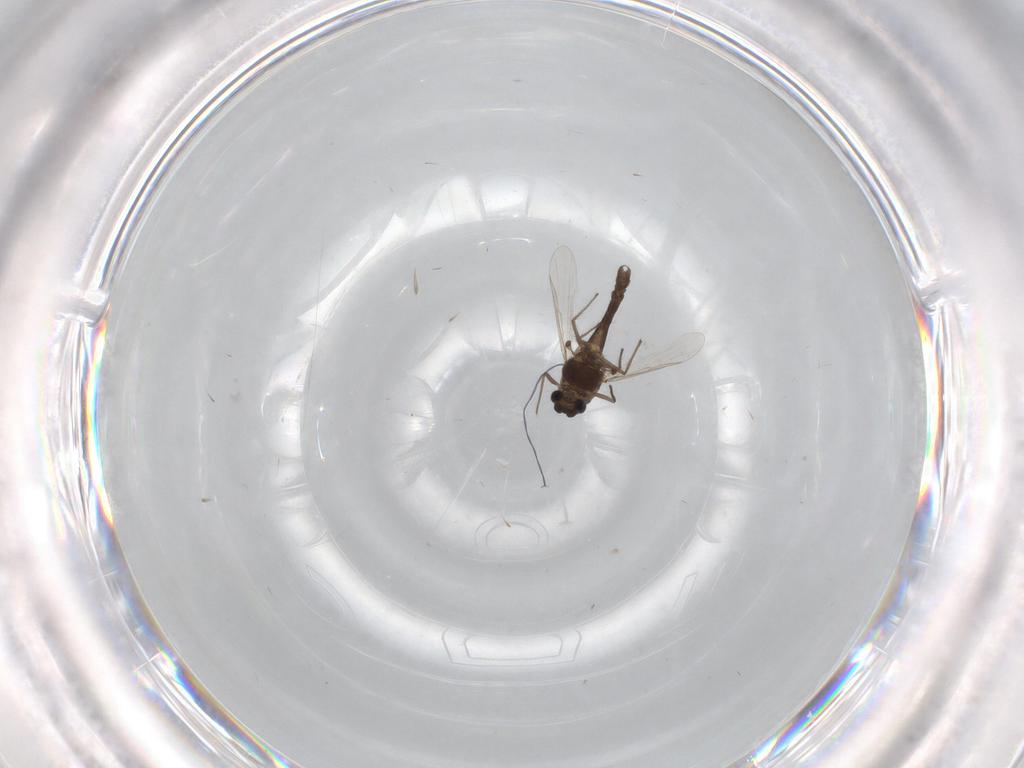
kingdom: Animalia
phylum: Arthropoda
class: Insecta
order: Diptera
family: Chironomidae
